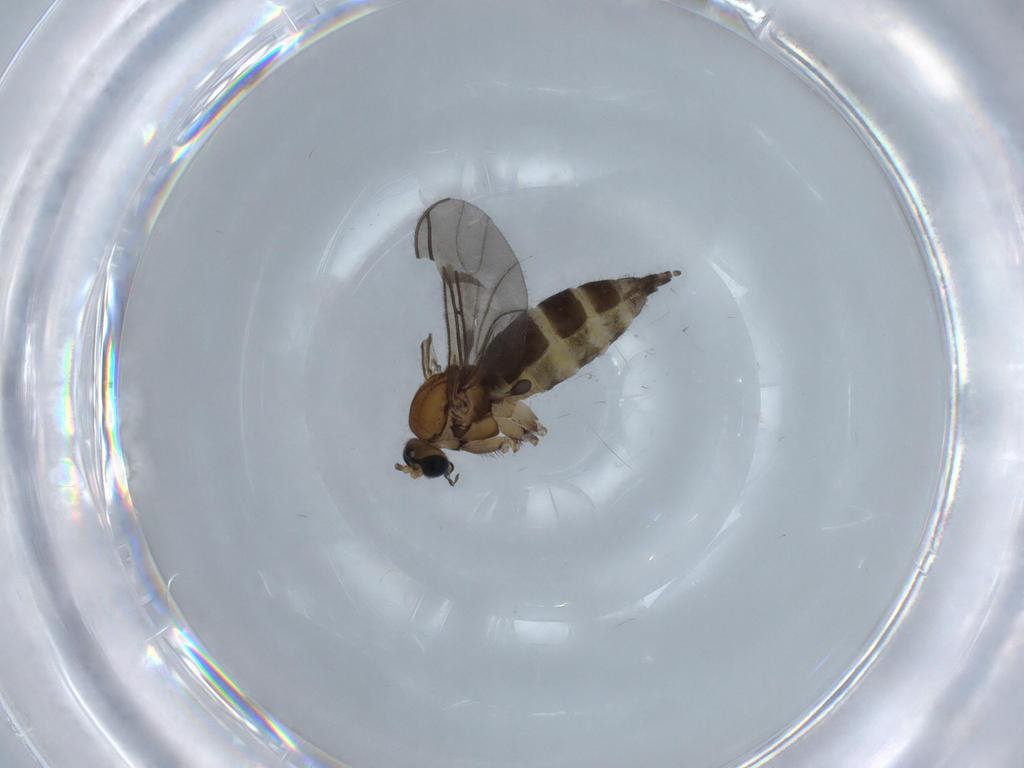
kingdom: Animalia
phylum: Arthropoda
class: Insecta
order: Diptera
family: Sciaridae
